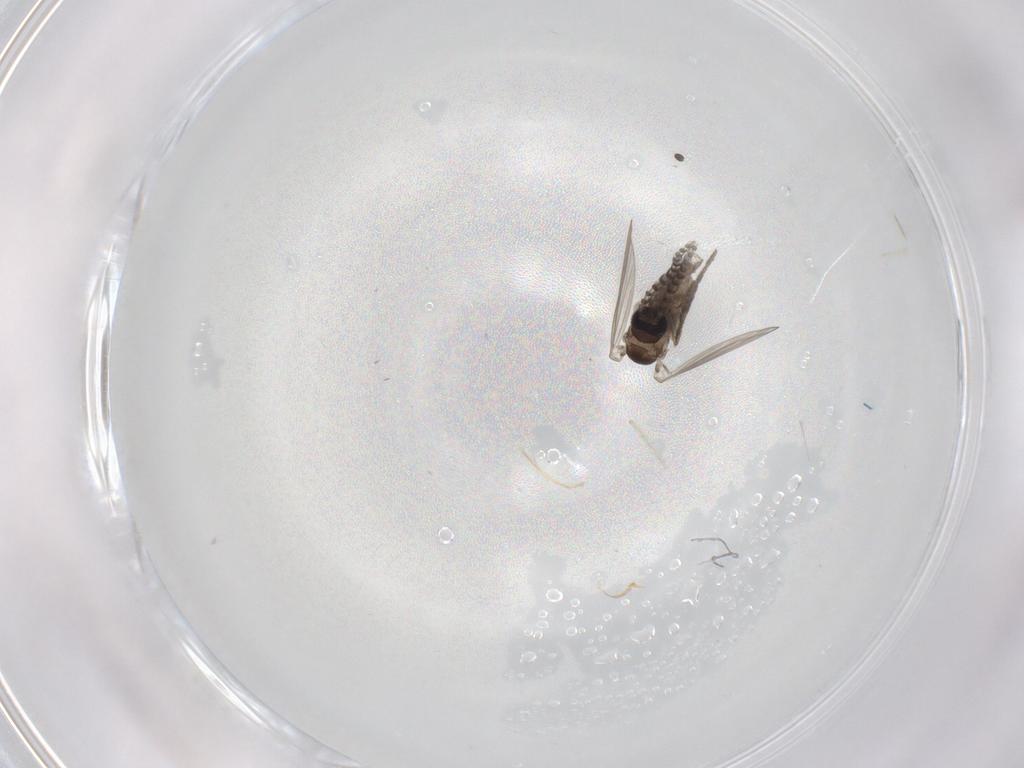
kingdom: Animalia
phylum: Arthropoda
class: Insecta
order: Diptera
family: Psychodidae
